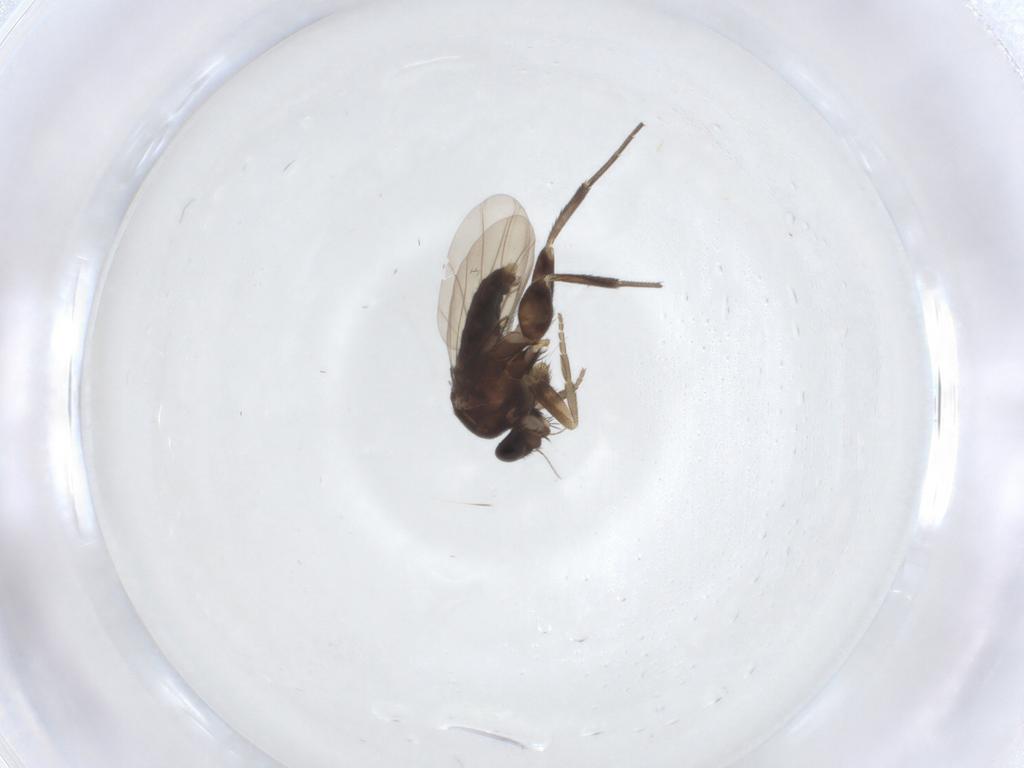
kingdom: Animalia
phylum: Arthropoda
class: Insecta
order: Diptera
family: Phoridae
